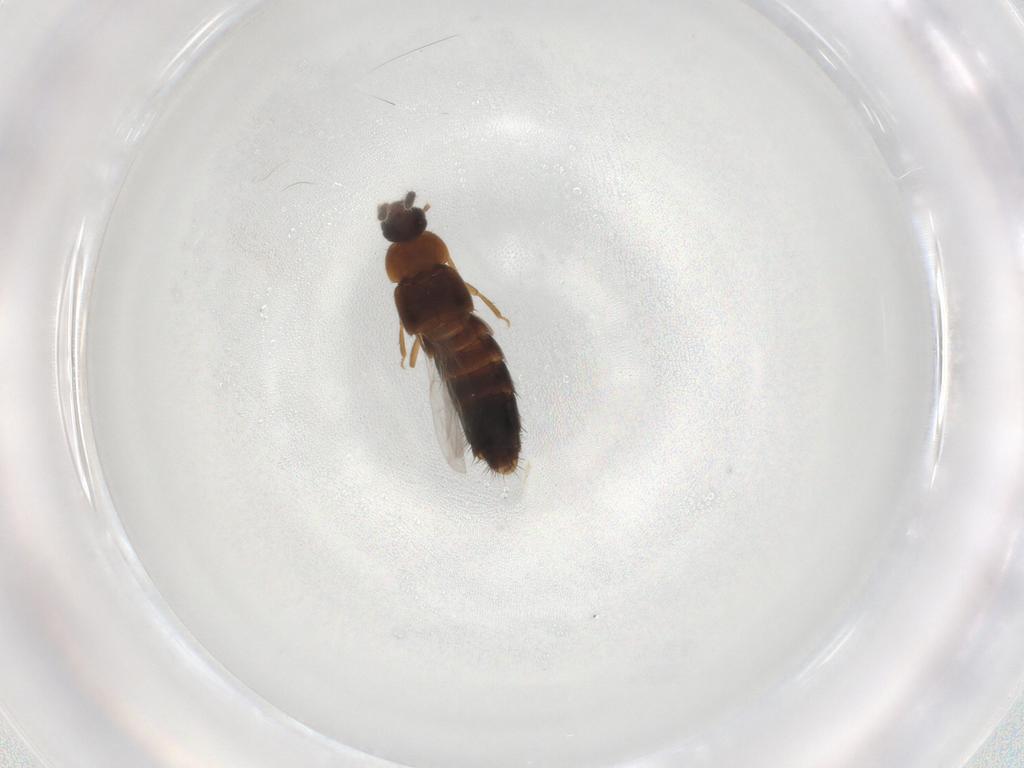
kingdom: Animalia
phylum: Arthropoda
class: Insecta
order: Coleoptera
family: Staphylinidae
